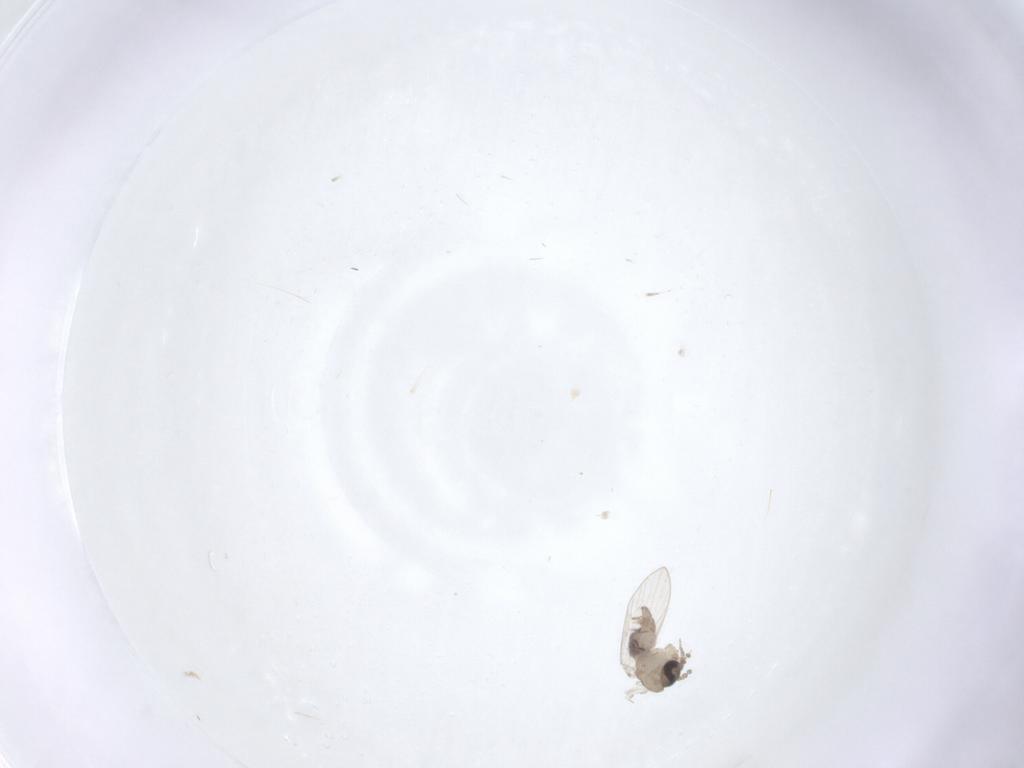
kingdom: Animalia
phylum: Arthropoda
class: Insecta
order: Diptera
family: Psychodidae
